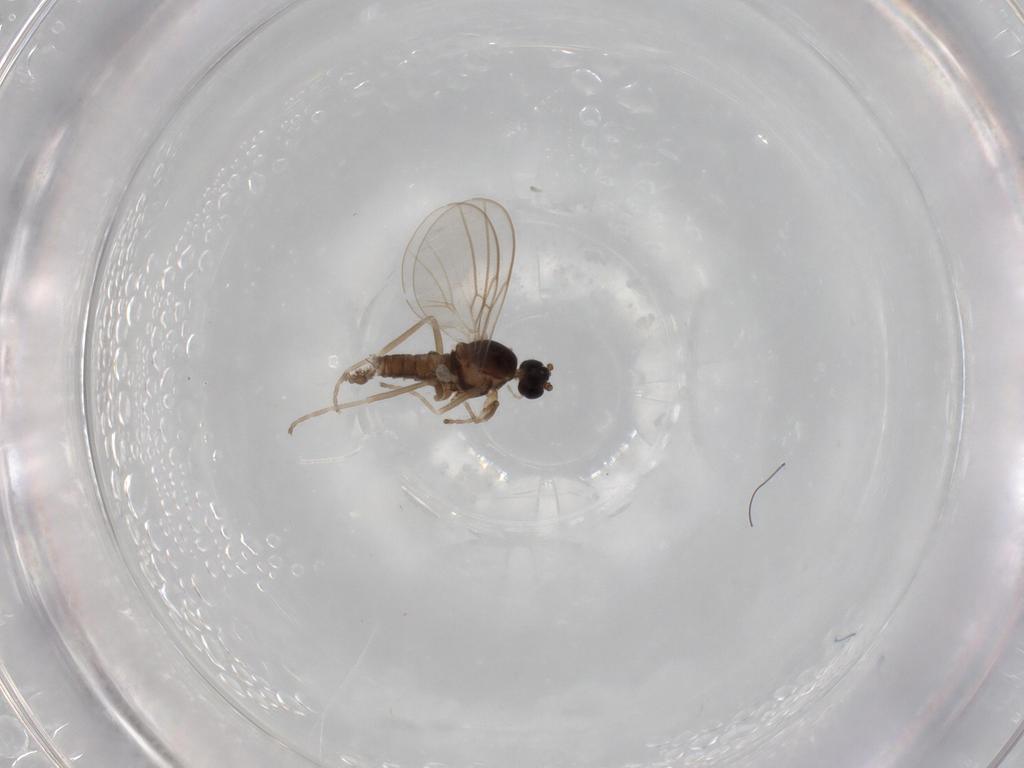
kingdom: Animalia
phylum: Arthropoda
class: Insecta
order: Diptera
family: Cecidomyiidae
